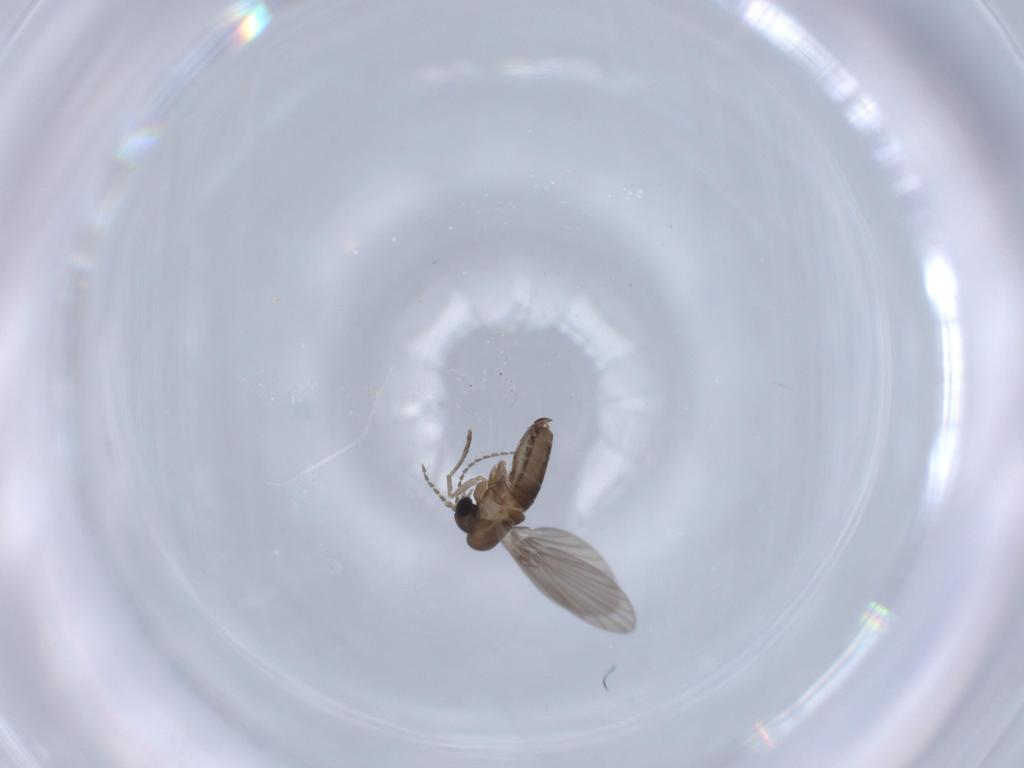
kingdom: Animalia
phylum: Arthropoda
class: Insecta
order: Diptera
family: Psychodidae
